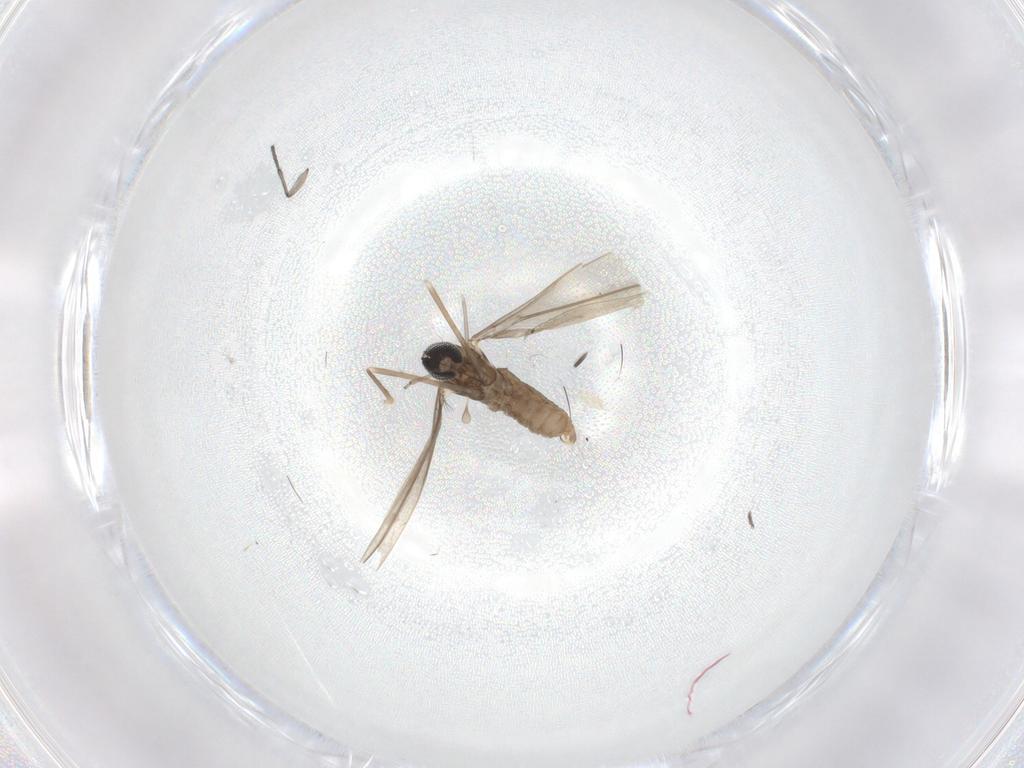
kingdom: Animalia
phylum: Arthropoda
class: Insecta
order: Diptera
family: Cecidomyiidae
